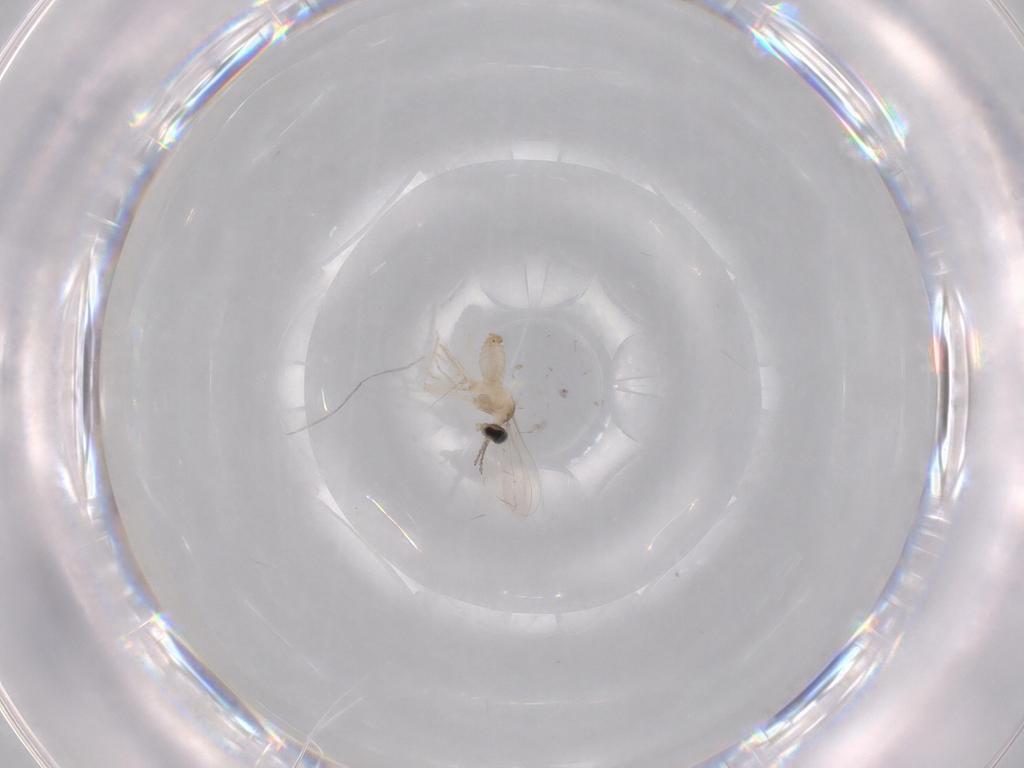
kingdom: Animalia
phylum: Arthropoda
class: Insecta
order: Diptera
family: Cecidomyiidae
